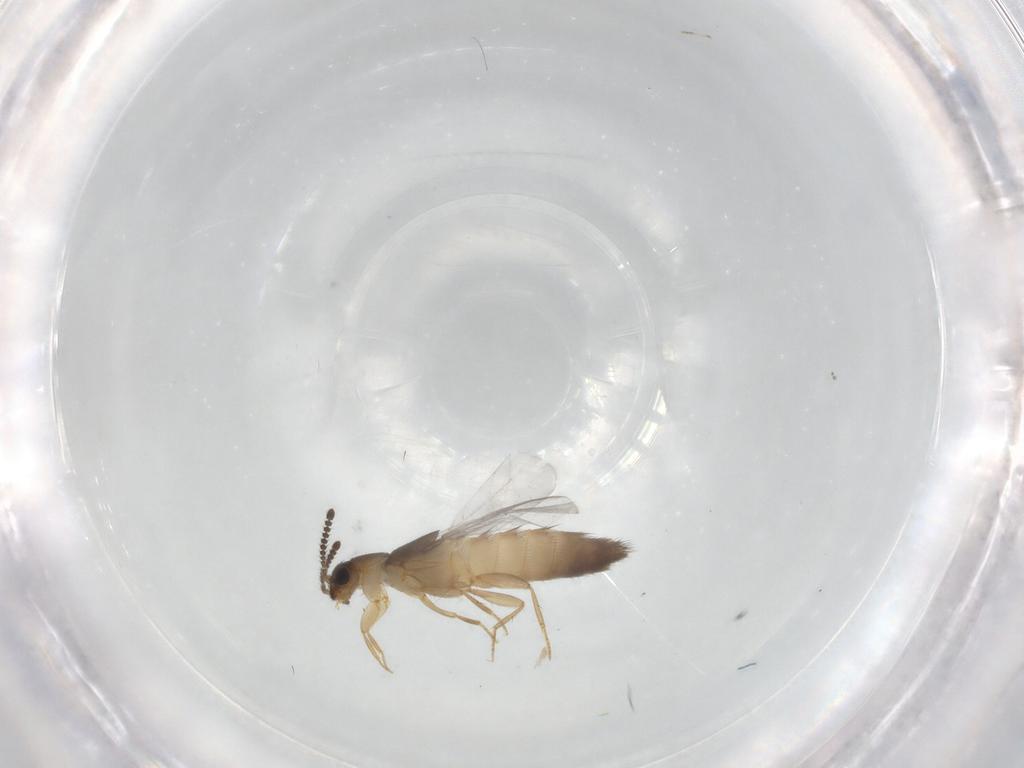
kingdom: Animalia
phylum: Arthropoda
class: Insecta
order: Coleoptera
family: Staphylinidae
